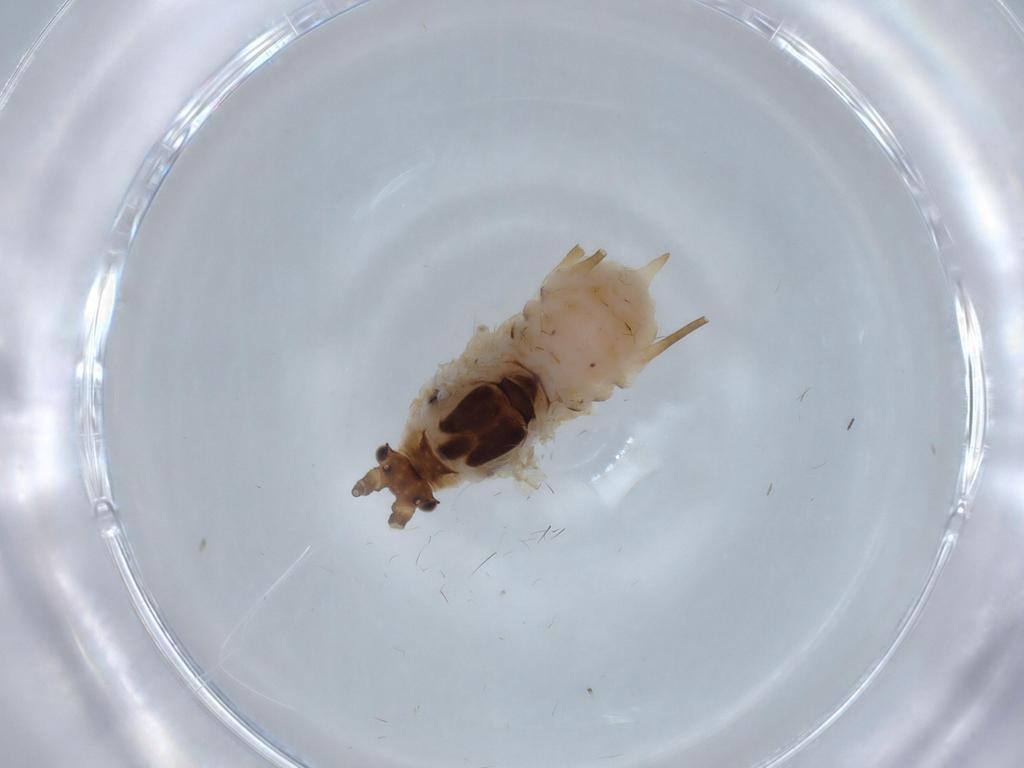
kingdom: Animalia
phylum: Arthropoda
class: Insecta
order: Hemiptera
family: Aphididae
